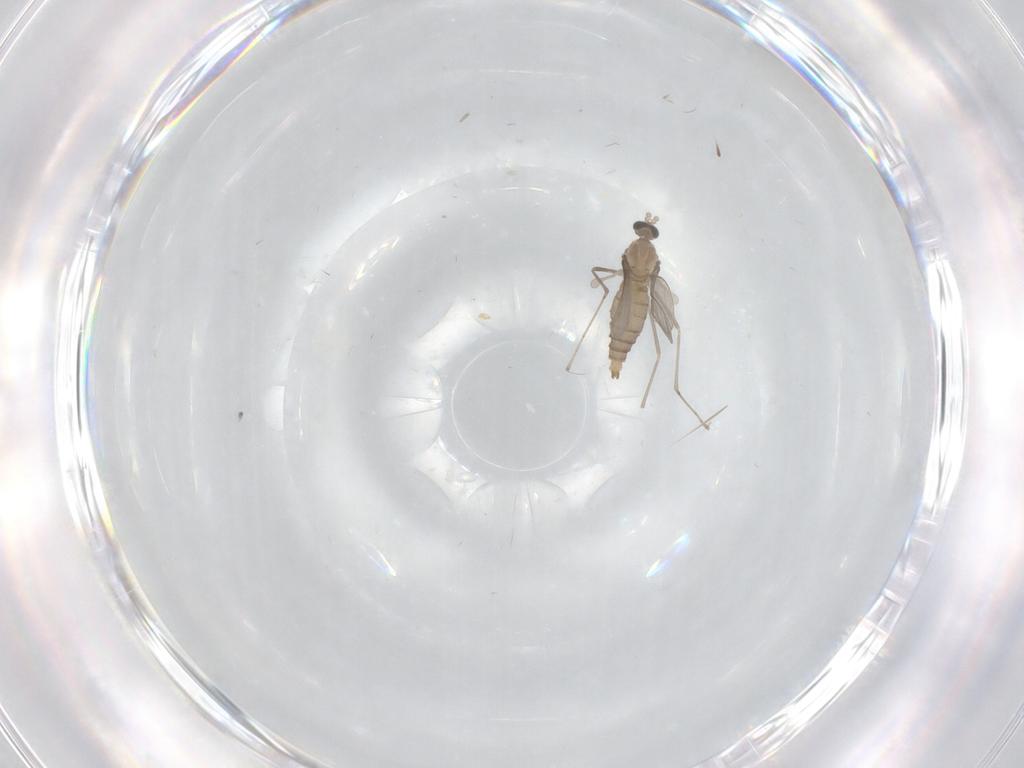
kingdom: Animalia
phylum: Arthropoda
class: Insecta
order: Diptera
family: Cecidomyiidae
